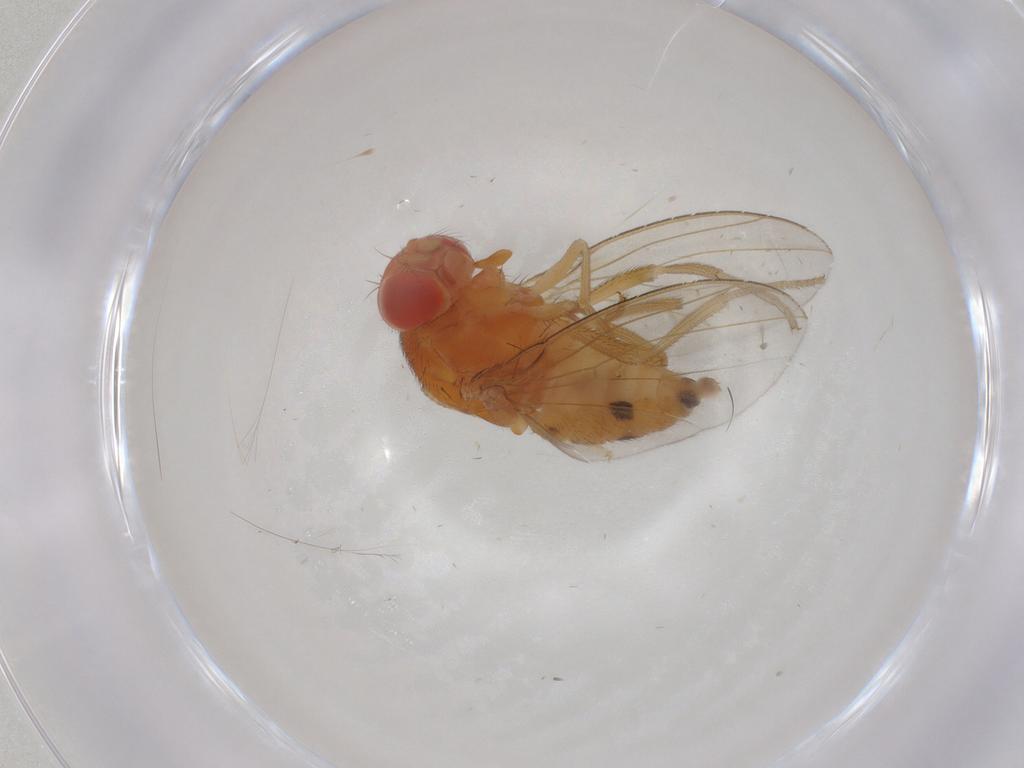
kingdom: Animalia
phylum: Arthropoda
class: Insecta
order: Diptera
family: Drosophilidae
